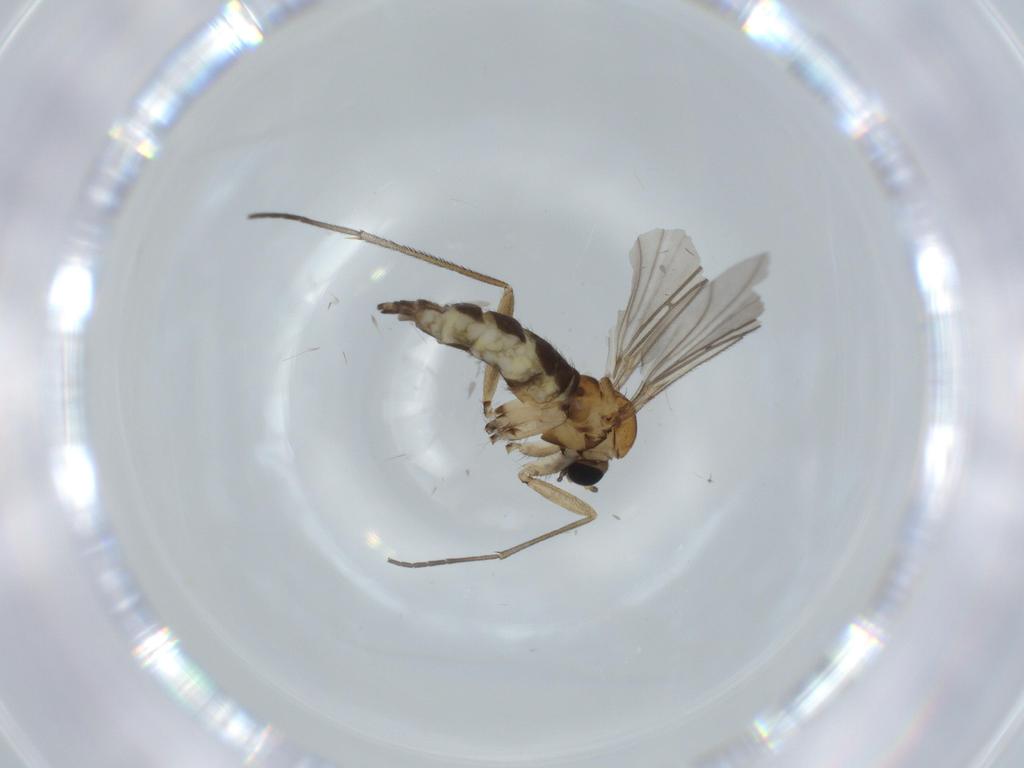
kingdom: Animalia
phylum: Arthropoda
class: Insecta
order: Diptera
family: Sciaridae
